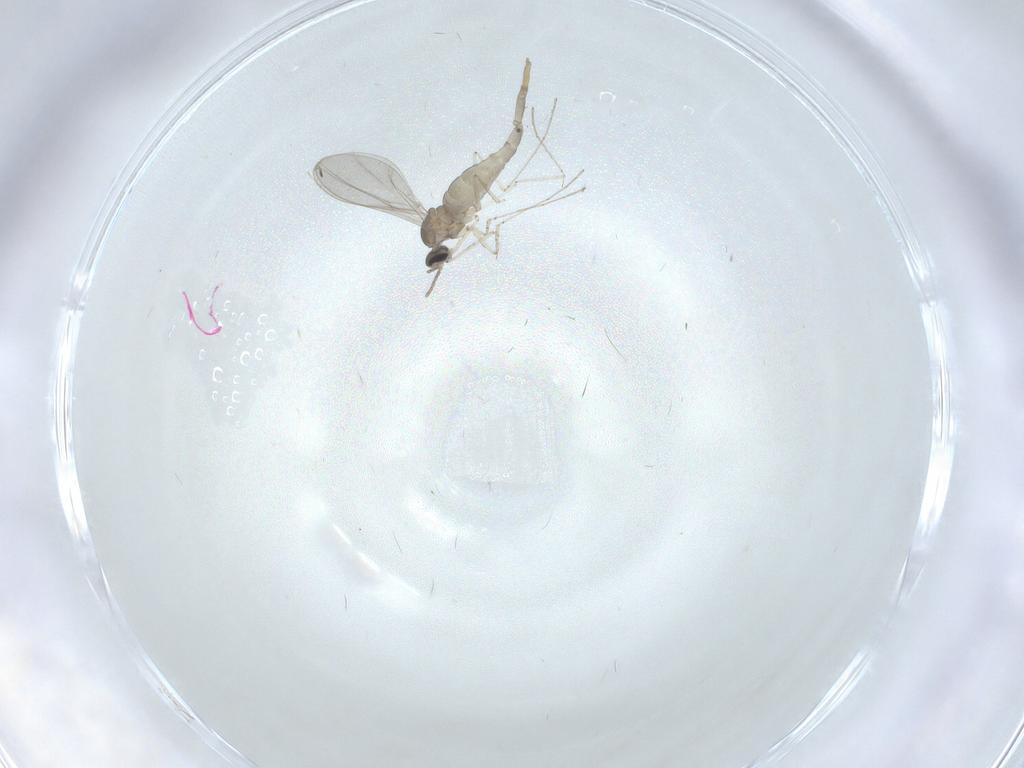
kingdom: Animalia
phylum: Arthropoda
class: Insecta
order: Diptera
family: Cecidomyiidae
